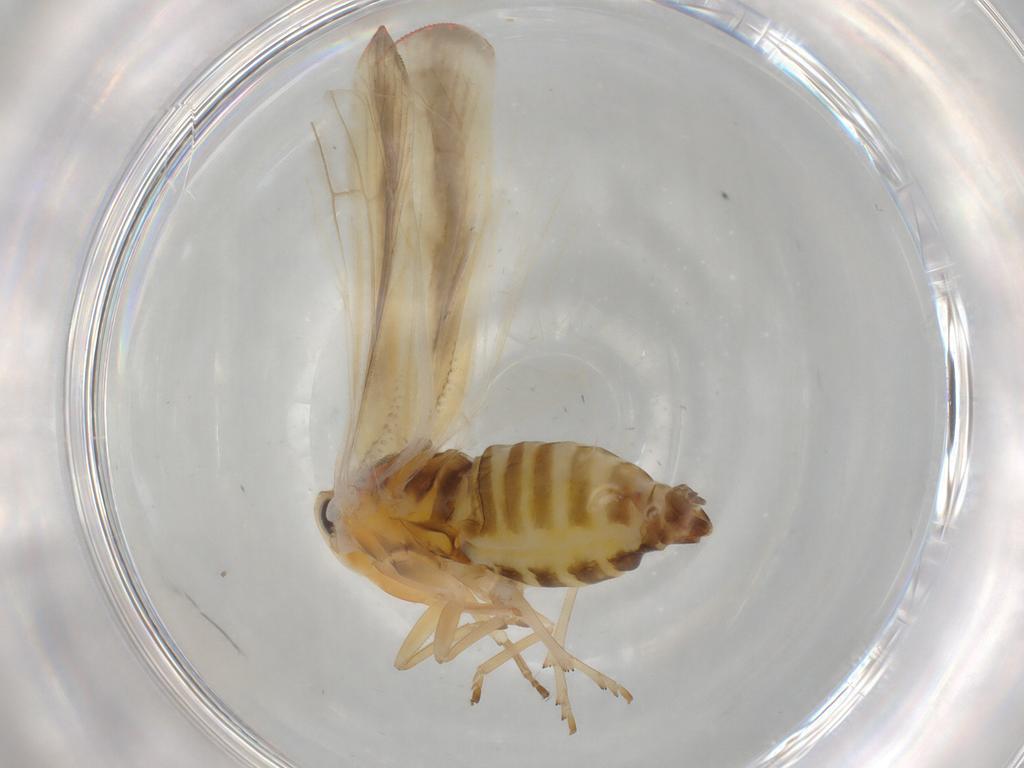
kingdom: Animalia
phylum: Arthropoda
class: Insecta
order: Hemiptera
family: Derbidae
